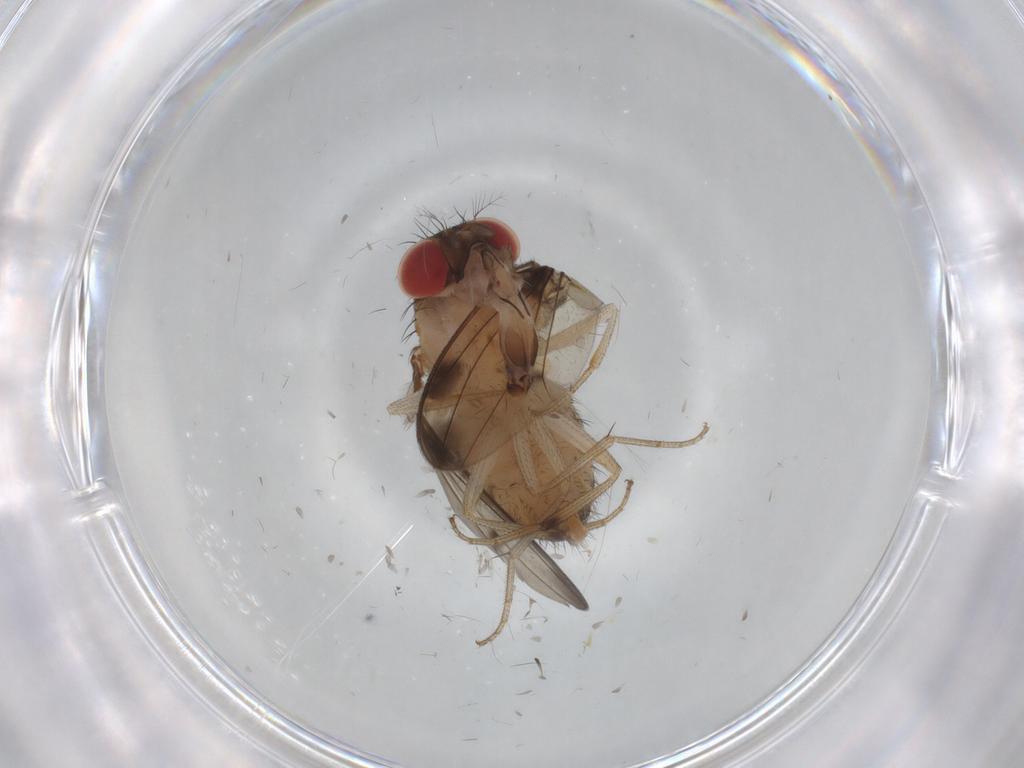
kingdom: Animalia
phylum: Arthropoda
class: Insecta
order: Diptera
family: Drosophilidae
